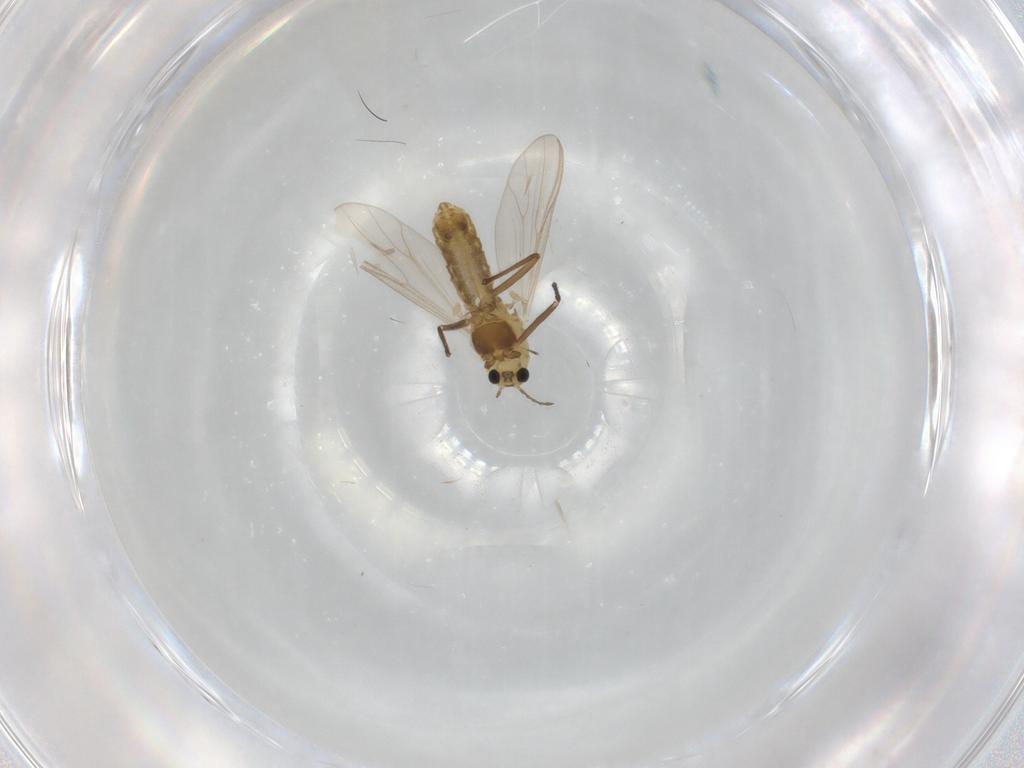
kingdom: Animalia
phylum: Arthropoda
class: Insecta
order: Diptera
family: Chironomidae
